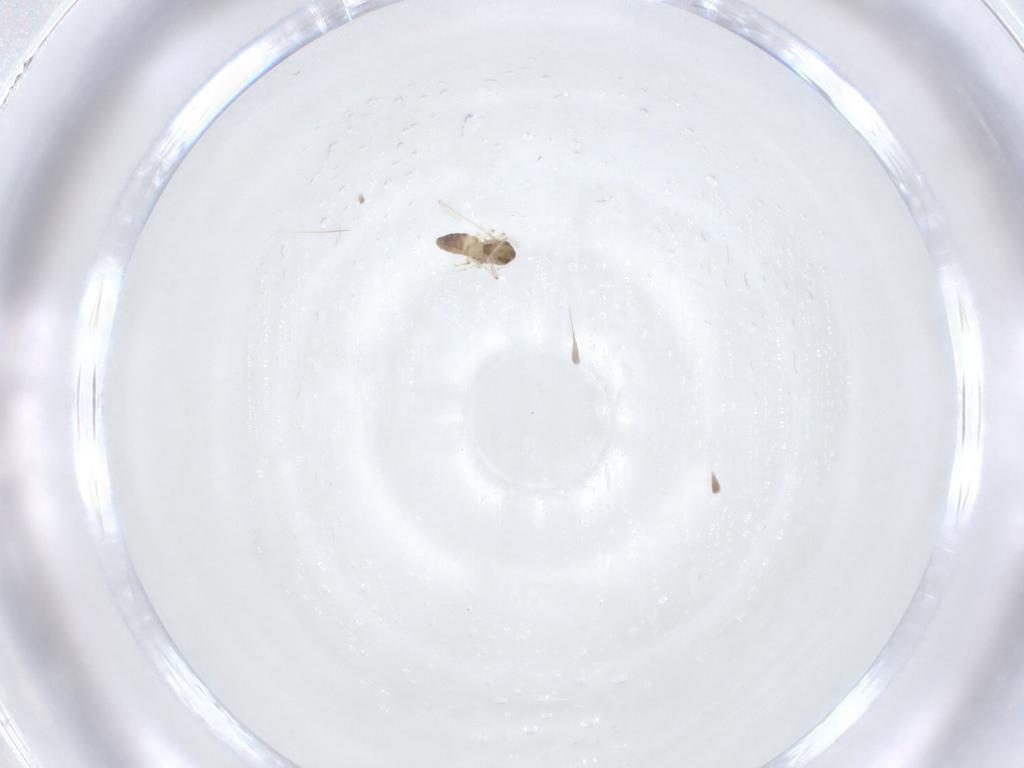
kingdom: Animalia
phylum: Arthropoda
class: Insecta
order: Diptera
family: Chironomidae
